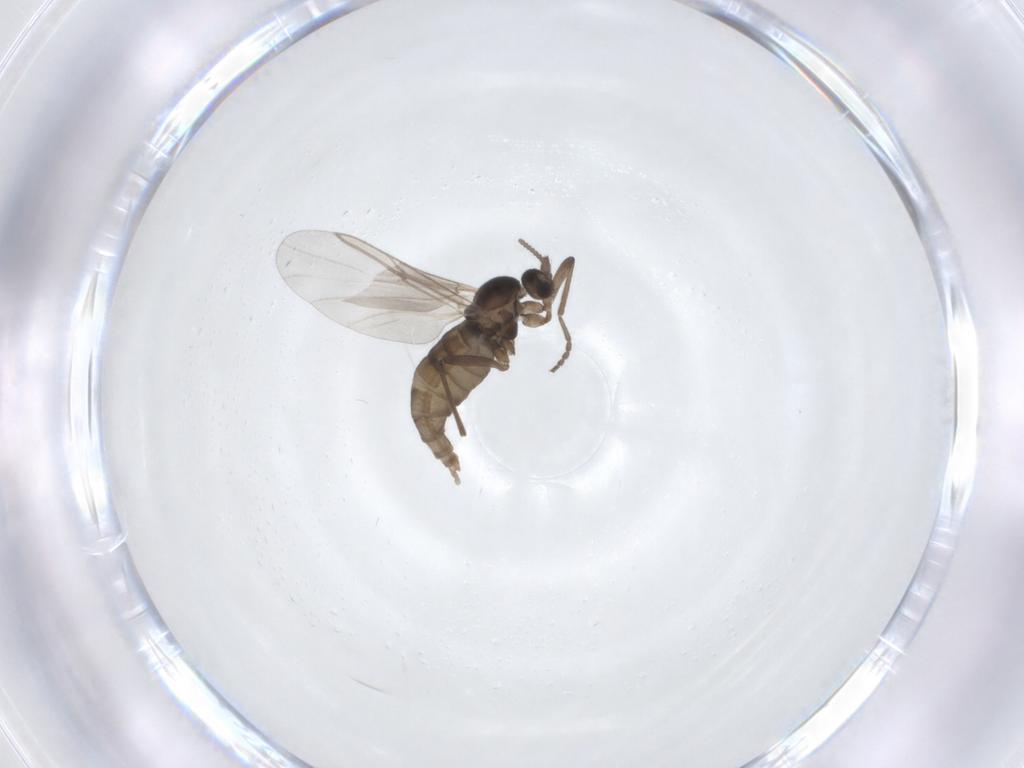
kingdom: Animalia
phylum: Arthropoda
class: Insecta
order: Diptera
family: Cecidomyiidae
